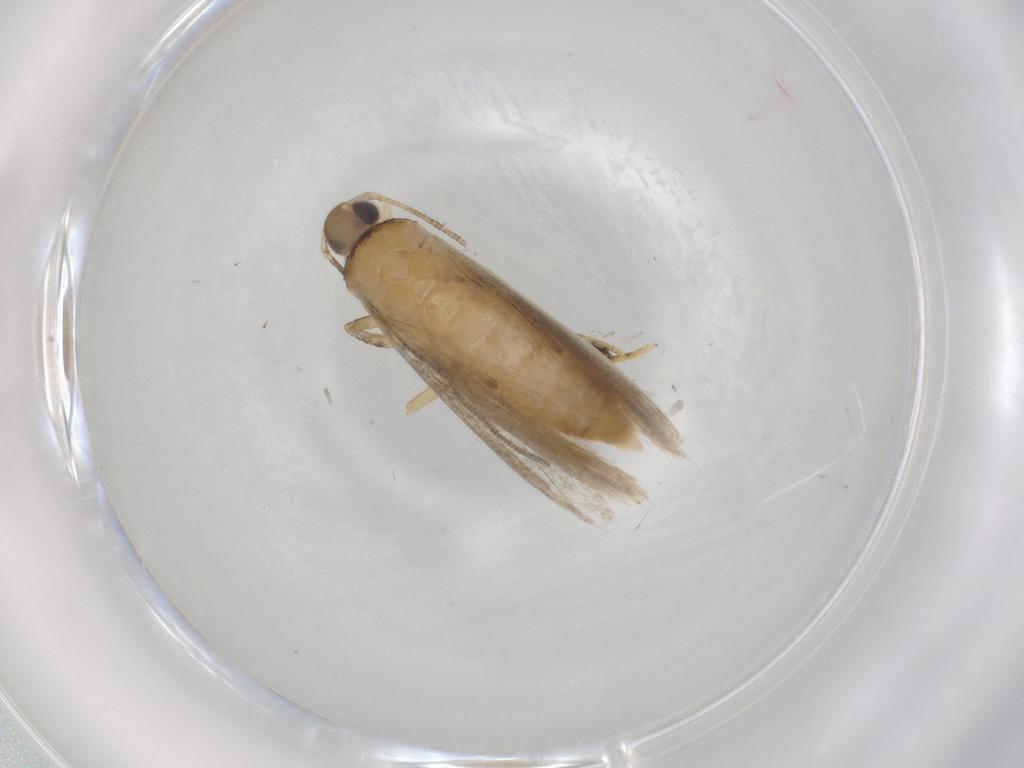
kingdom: Animalia
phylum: Arthropoda
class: Insecta
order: Lepidoptera
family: Autostichidae
